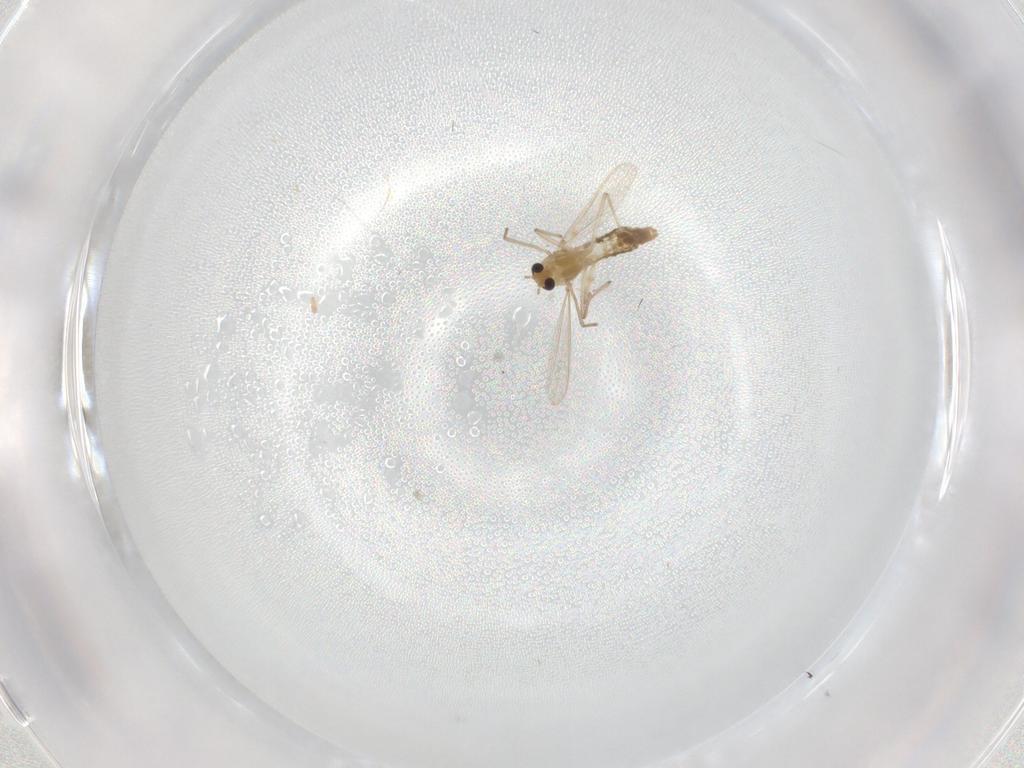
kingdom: Animalia
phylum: Arthropoda
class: Insecta
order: Diptera
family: Chironomidae
